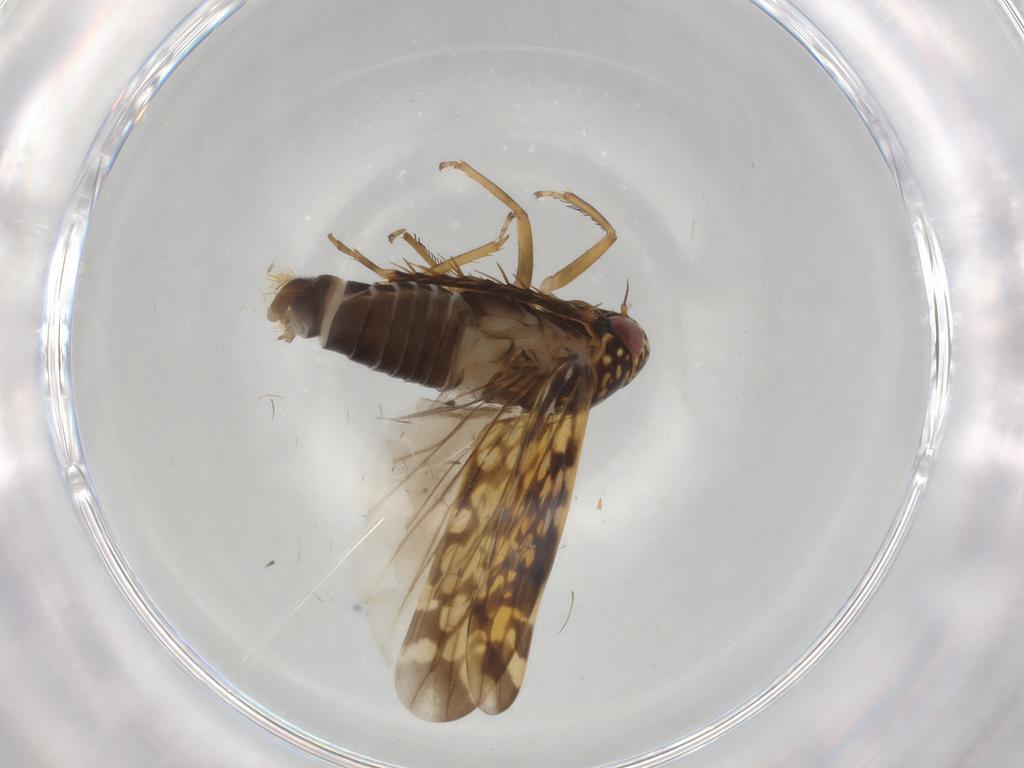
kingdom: Animalia
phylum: Arthropoda
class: Insecta
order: Hemiptera
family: Cicadellidae
